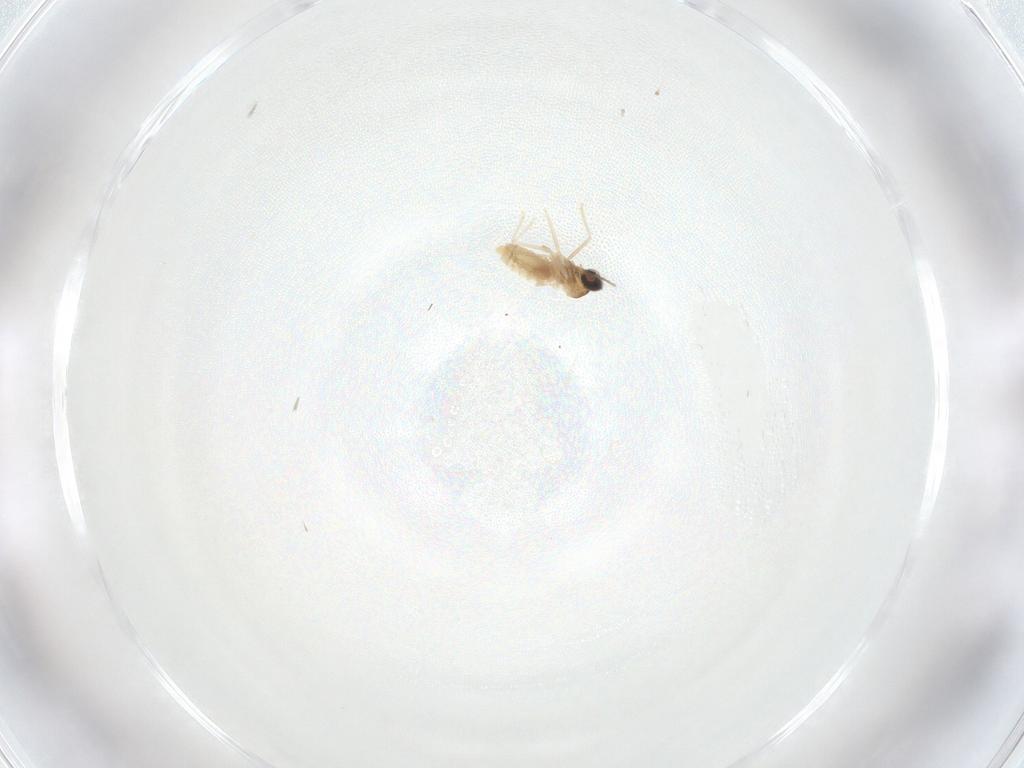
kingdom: Animalia
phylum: Arthropoda
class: Insecta
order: Diptera
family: Cecidomyiidae
